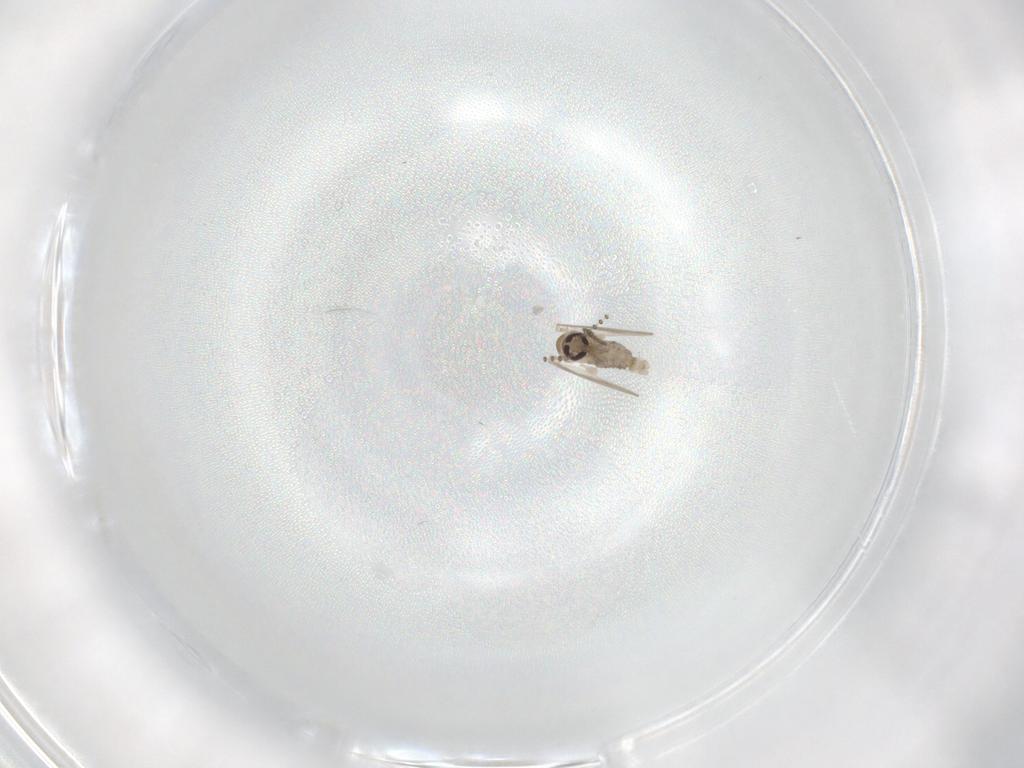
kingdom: Animalia
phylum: Arthropoda
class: Insecta
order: Diptera
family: Psychodidae
